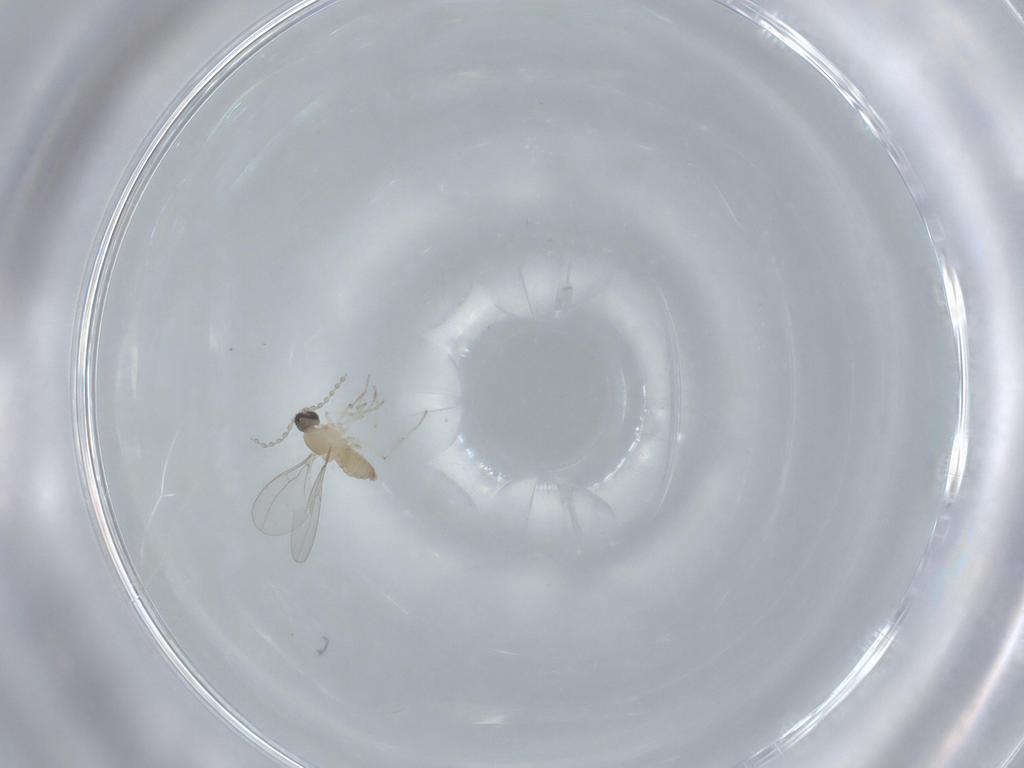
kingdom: Animalia
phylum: Arthropoda
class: Insecta
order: Diptera
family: Cecidomyiidae
